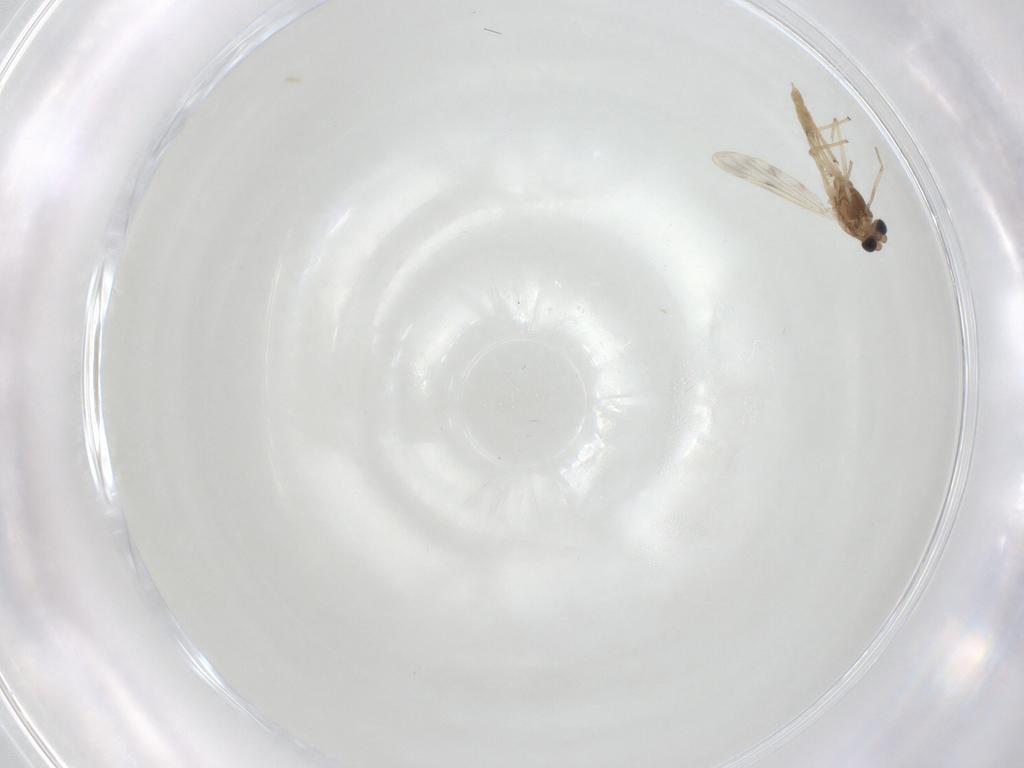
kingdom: Animalia
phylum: Arthropoda
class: Insecta
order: Diptera
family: Chironomidae
